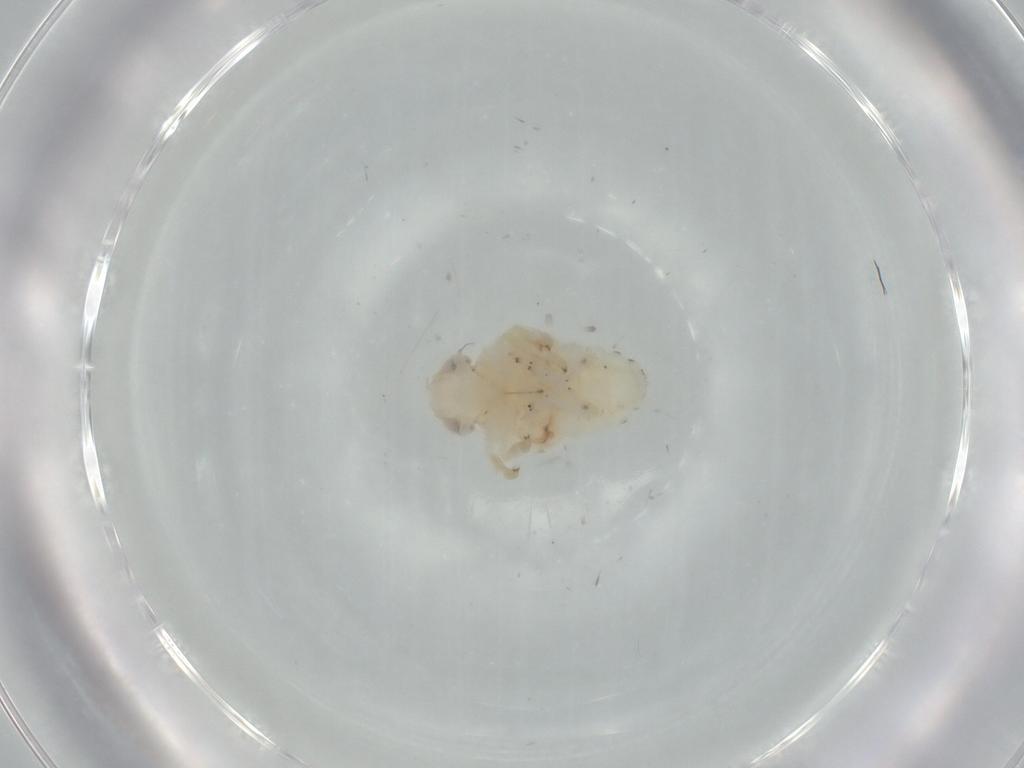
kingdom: Animalia
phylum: Arthropoda
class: Insecta
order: Hemiptera
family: Nogodinidae
